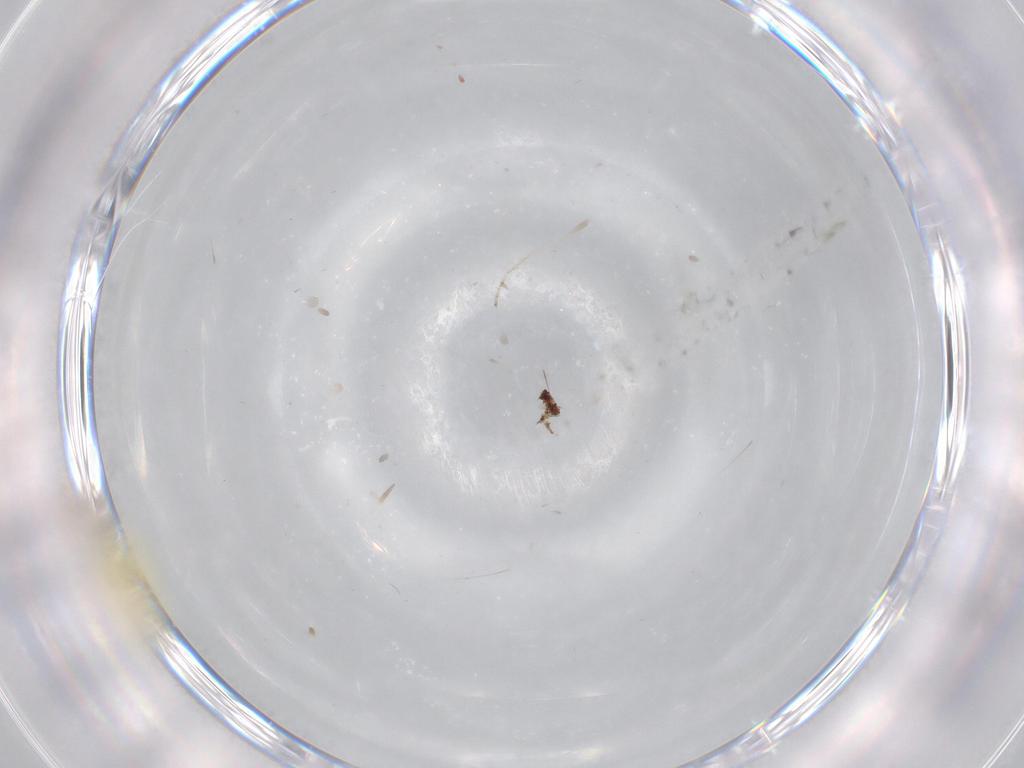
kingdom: Animalia
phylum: Arthropoda
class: Insecta
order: Hemiptera
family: Aleyrodidae
